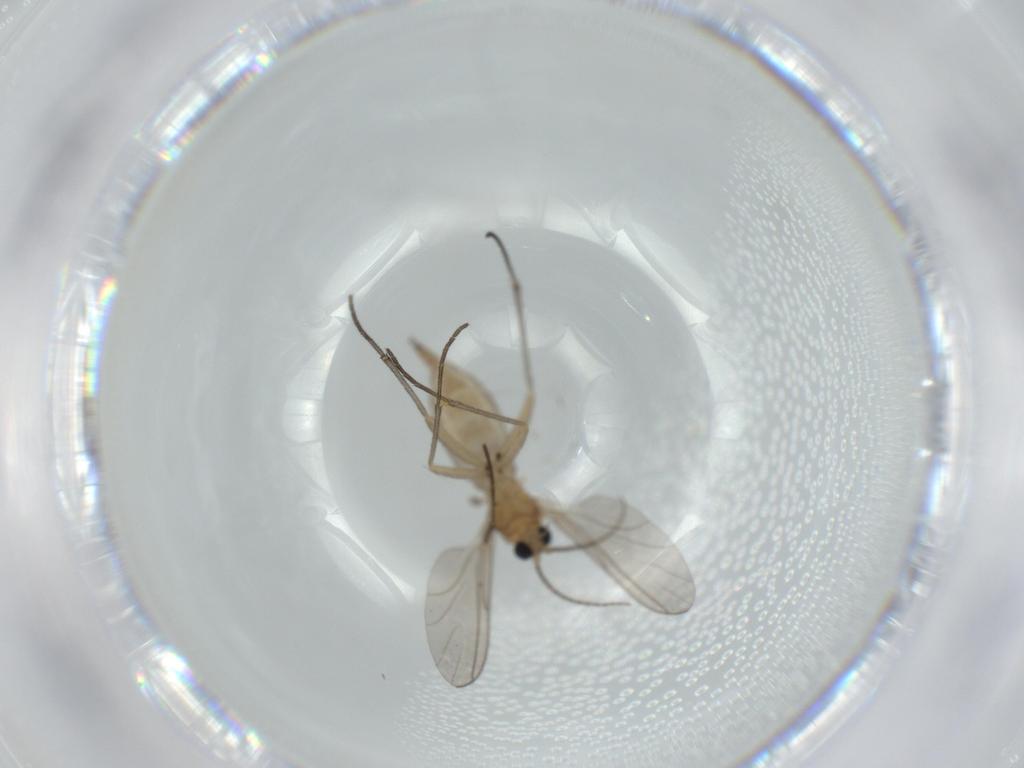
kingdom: Animalia
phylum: Arthropoda
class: Insecta
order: Diptera
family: Sciaridae
